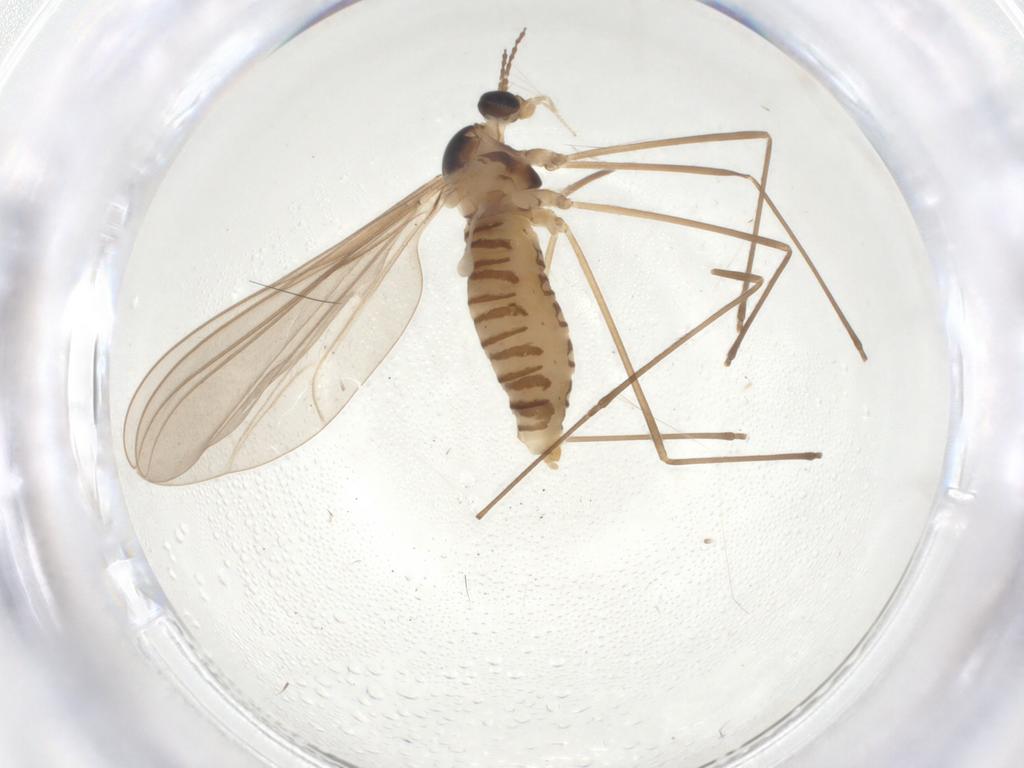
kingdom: Animalia
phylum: Arthropoda
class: Insecta
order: Diptera
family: Cecidomyiidae
